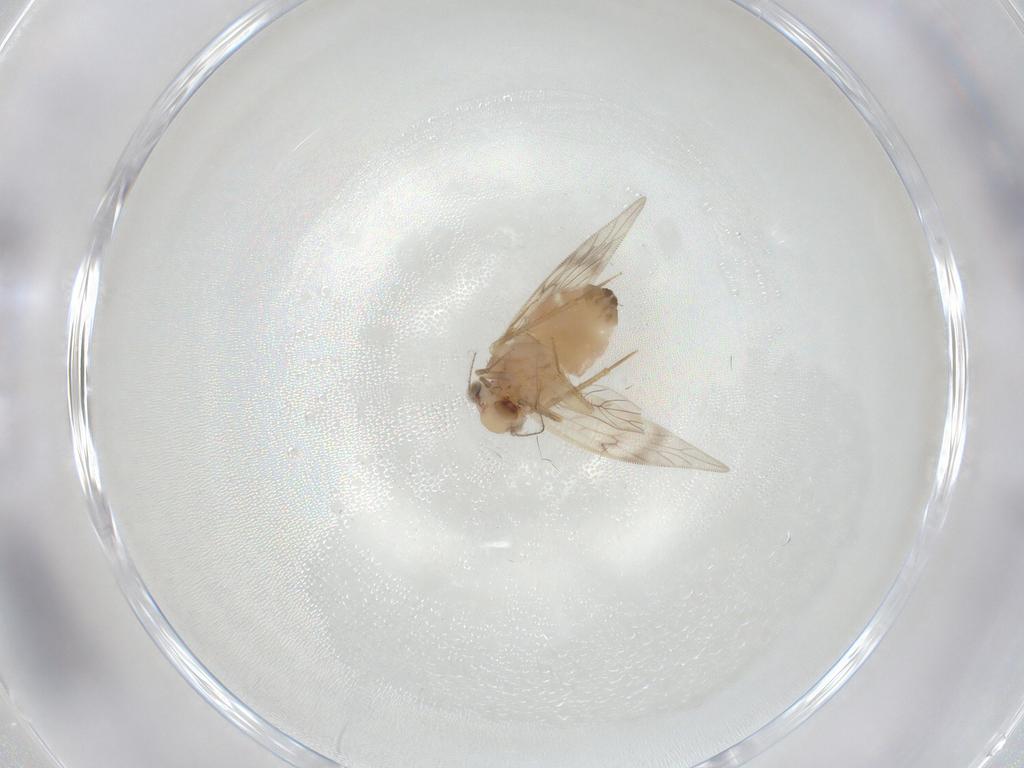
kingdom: Animalia
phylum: Arthropoda
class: Insecta
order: Psocodea
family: Lepidopsocidae
